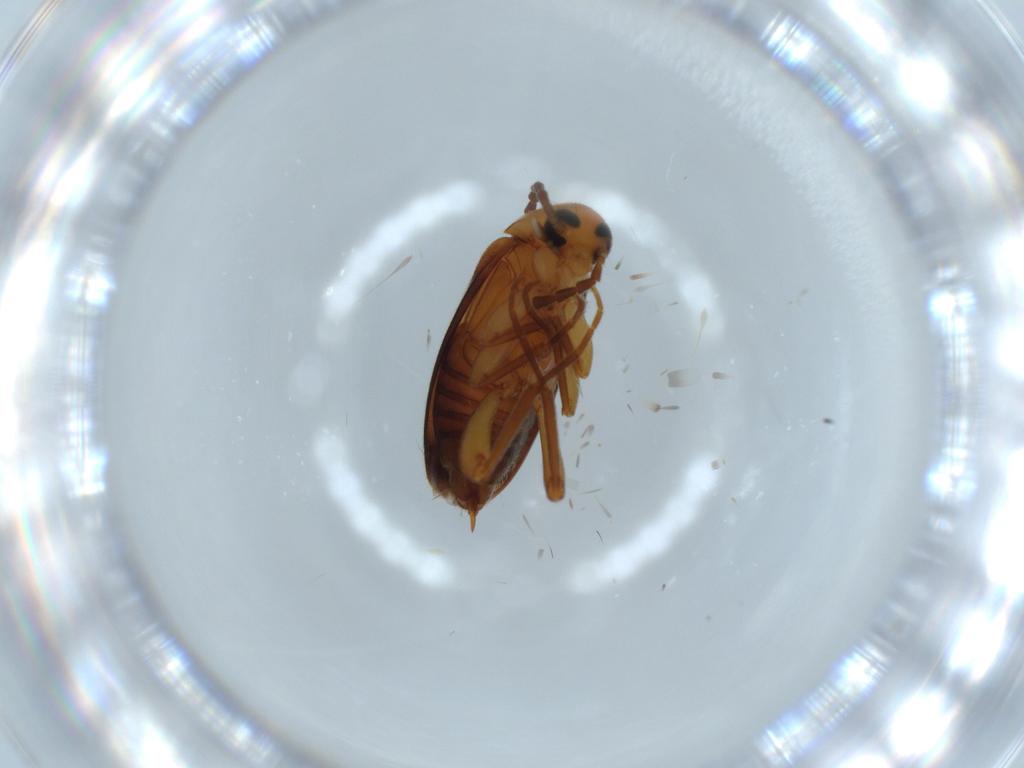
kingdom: Animalia
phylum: Arthropoda
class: Insecta
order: Coleoptera
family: Scraptiidae
